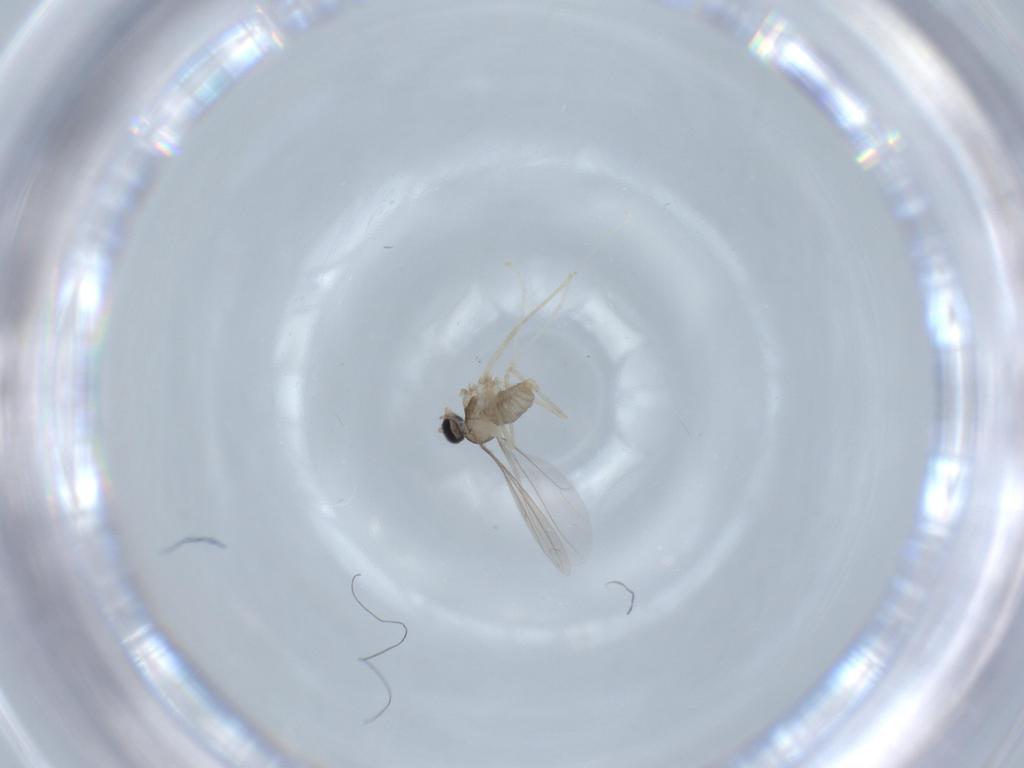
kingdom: Animalia
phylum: Arthropoda
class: Insecta
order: Diptera
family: Cecidomyiidae
